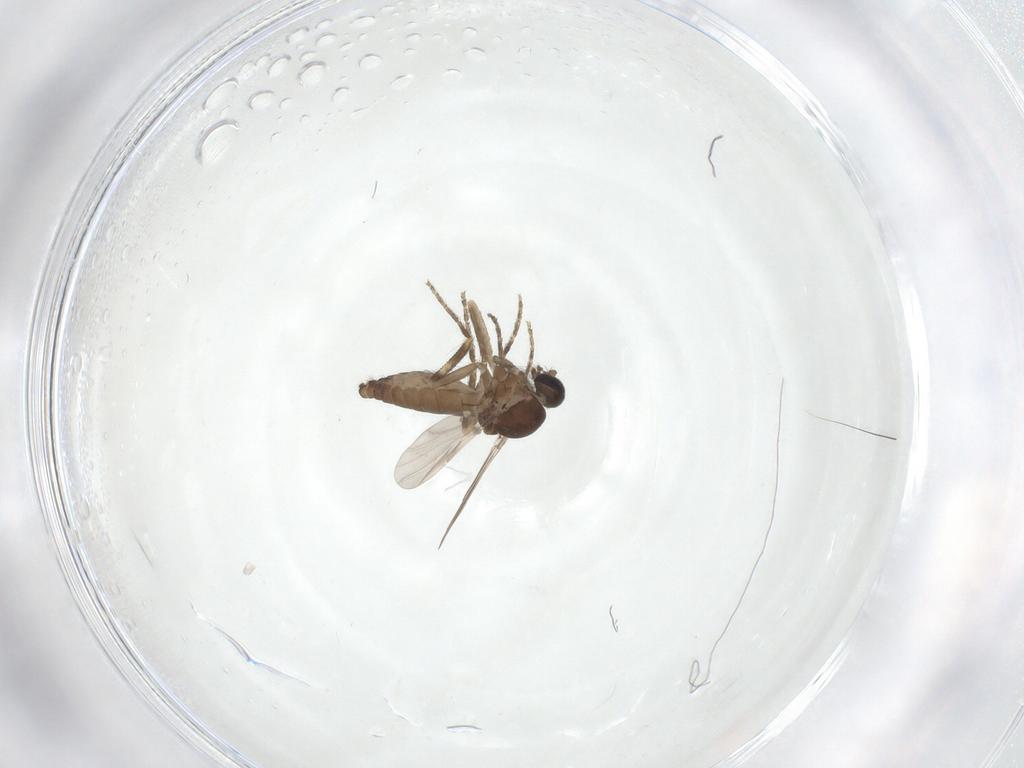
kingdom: Animalia
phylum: Arthropoda
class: Insecta
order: Diptera
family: Ceratopogonidae
